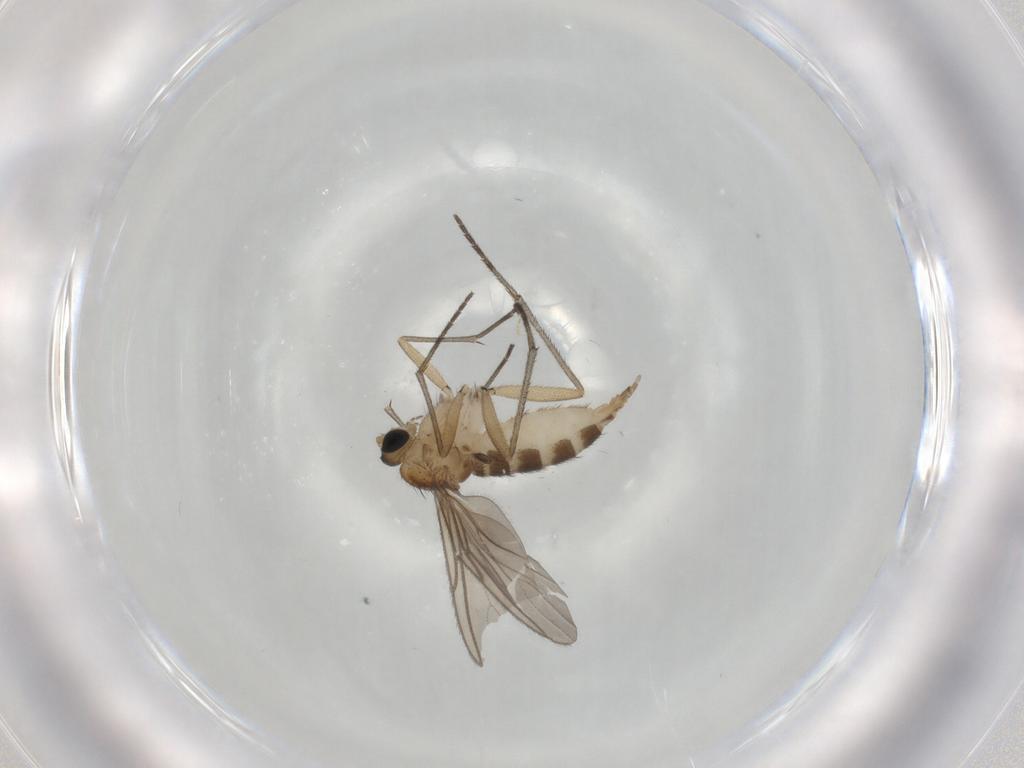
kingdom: Animalia
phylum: Arthropoda
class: Insecta
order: Diptera
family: Sciaridae
